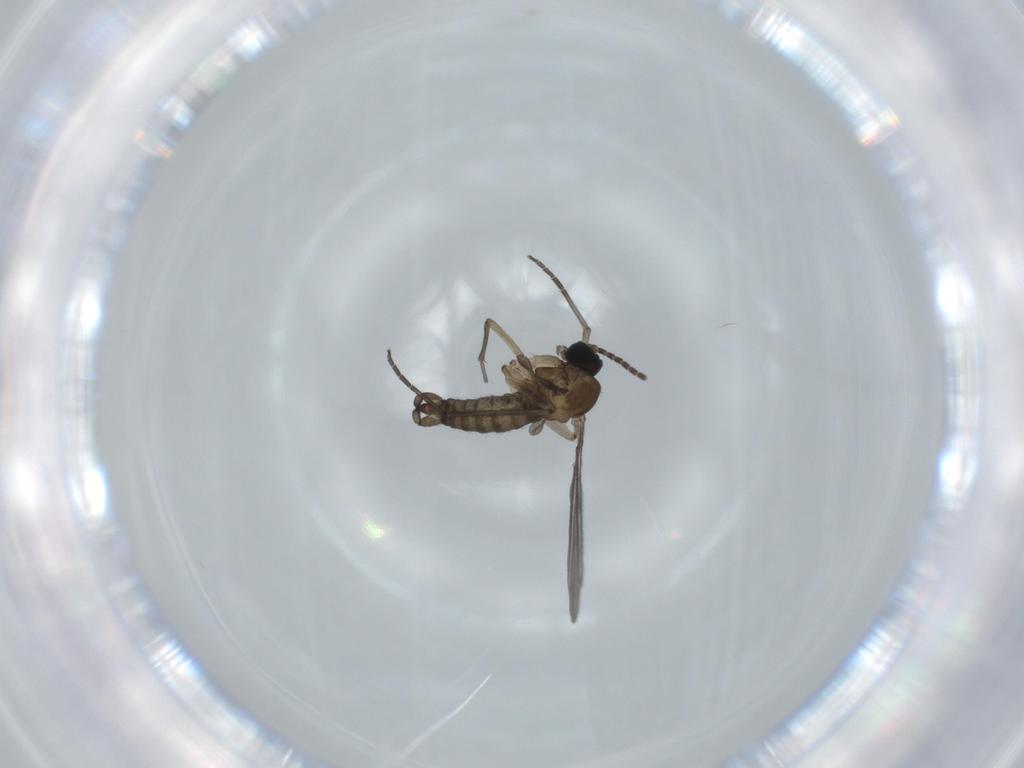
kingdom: Animalia
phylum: Arthropoda
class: Insecta
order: Diptera
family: Sciaridae
